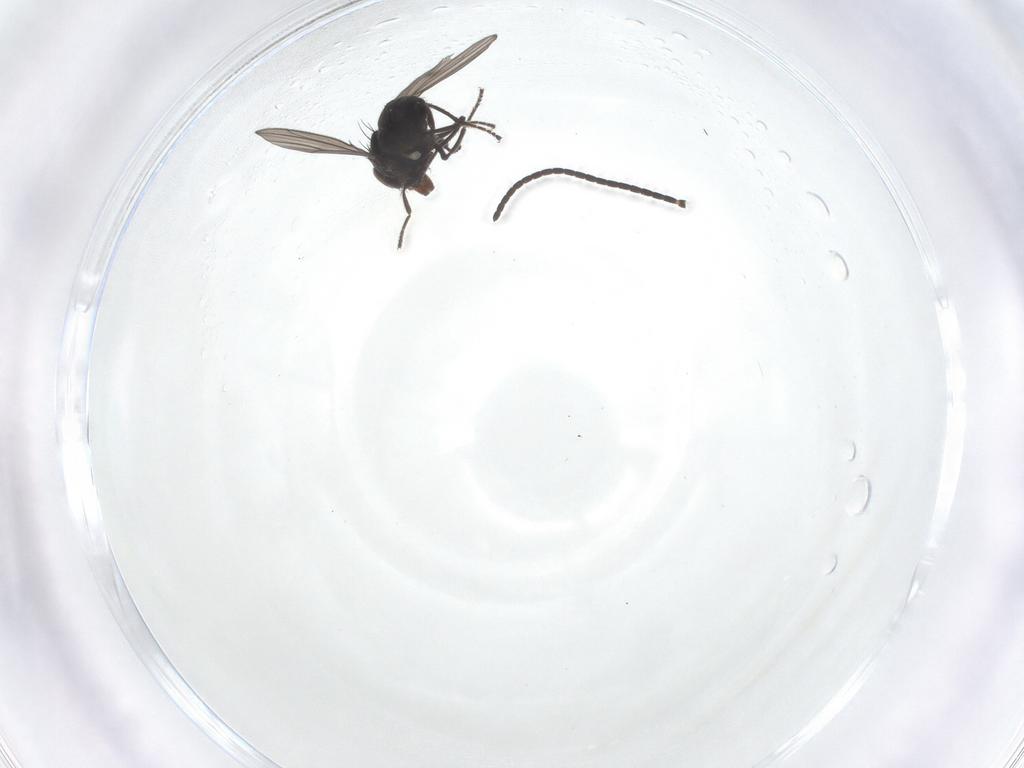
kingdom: Animalia
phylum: Arthropoda
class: Insecta
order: Diptera
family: Ephydridae
